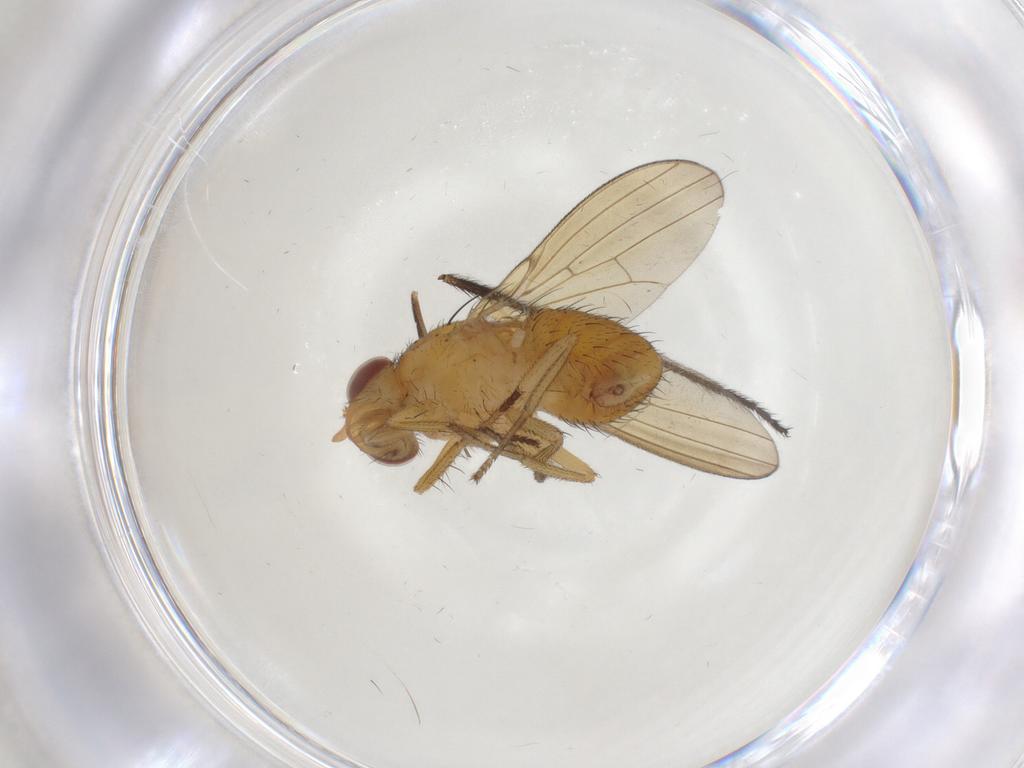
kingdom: Animalia
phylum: Arthropoda
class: Insecta
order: Diptera
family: Limoniidae
